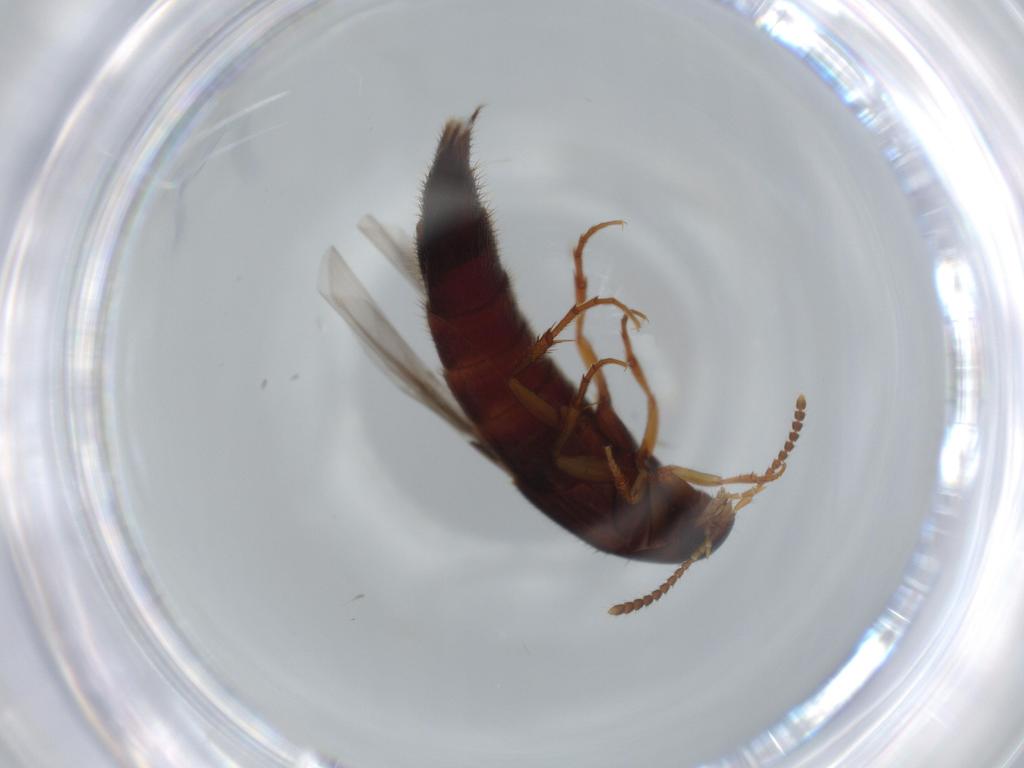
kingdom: Animalia
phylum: Arthropoda
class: Insecta
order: Coleoptera
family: Staphylinidae
